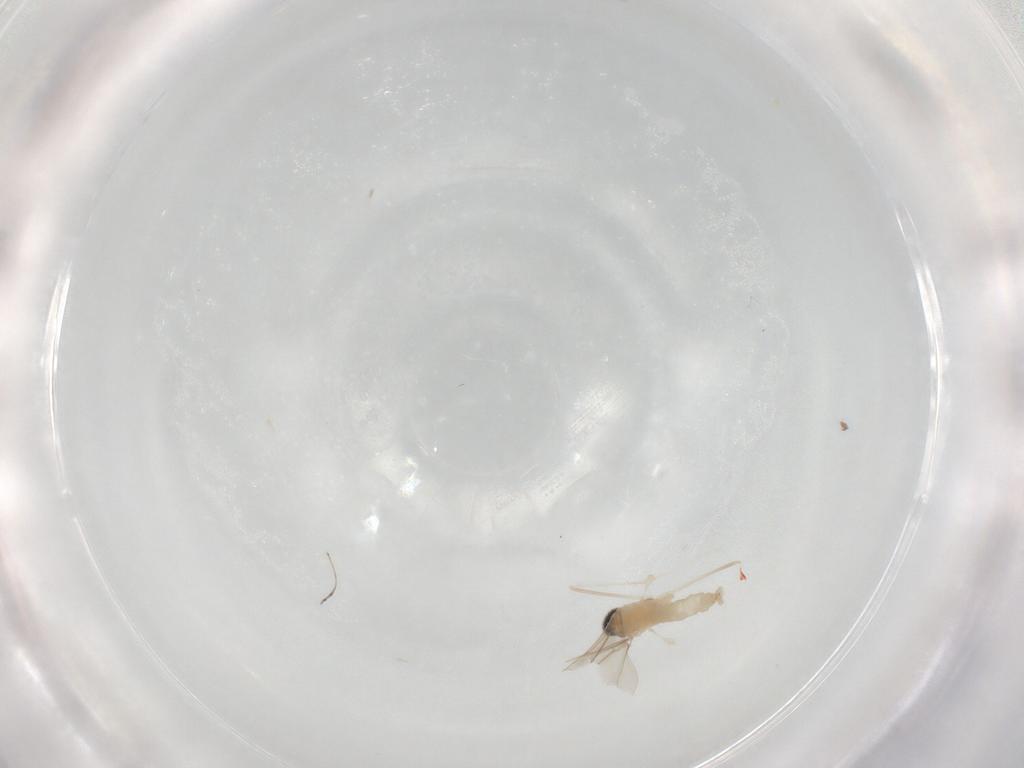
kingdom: Animalia
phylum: Arthropoda
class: Insecta
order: Diptera
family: Cecidomyiidae
